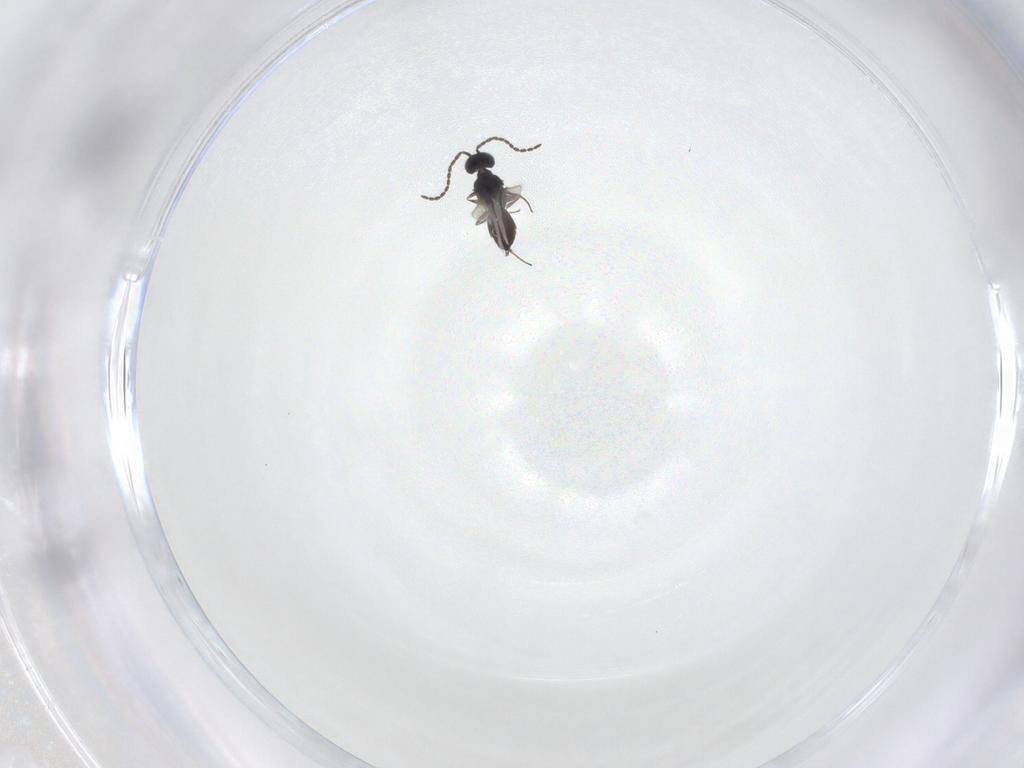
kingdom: Animalia
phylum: Arthropoda
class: Insecta
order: Hymenoptera
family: Scelionidae
